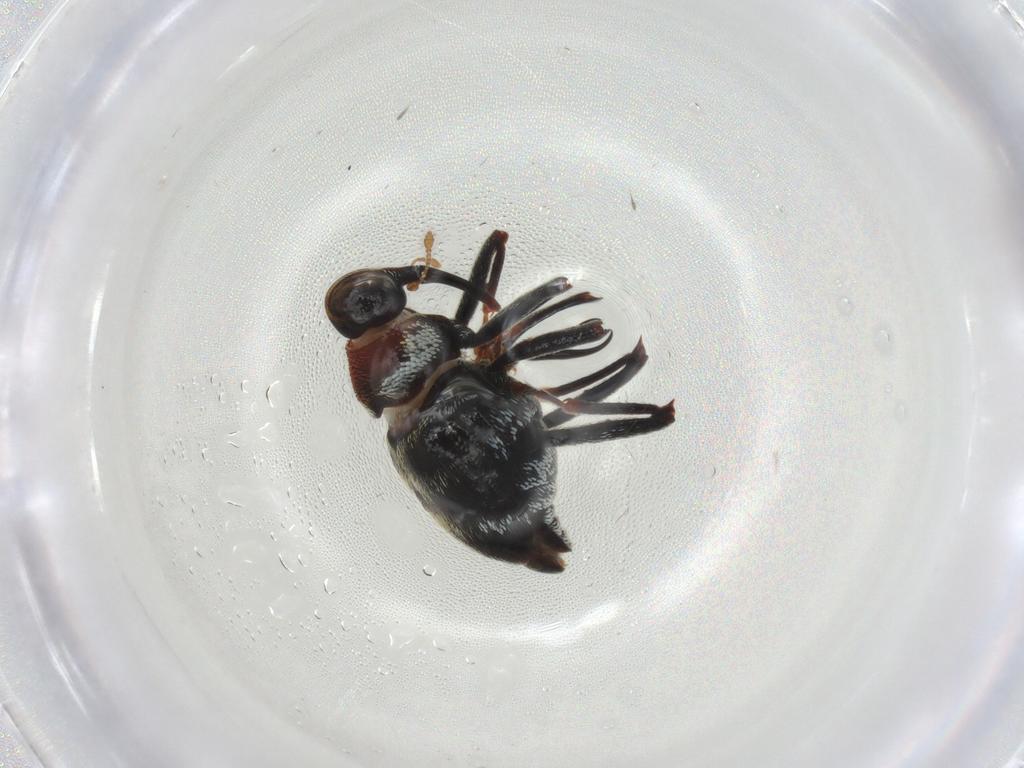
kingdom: Animalia
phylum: Arthropoda
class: Insecta
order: Coleoptera
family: Curculionidae
